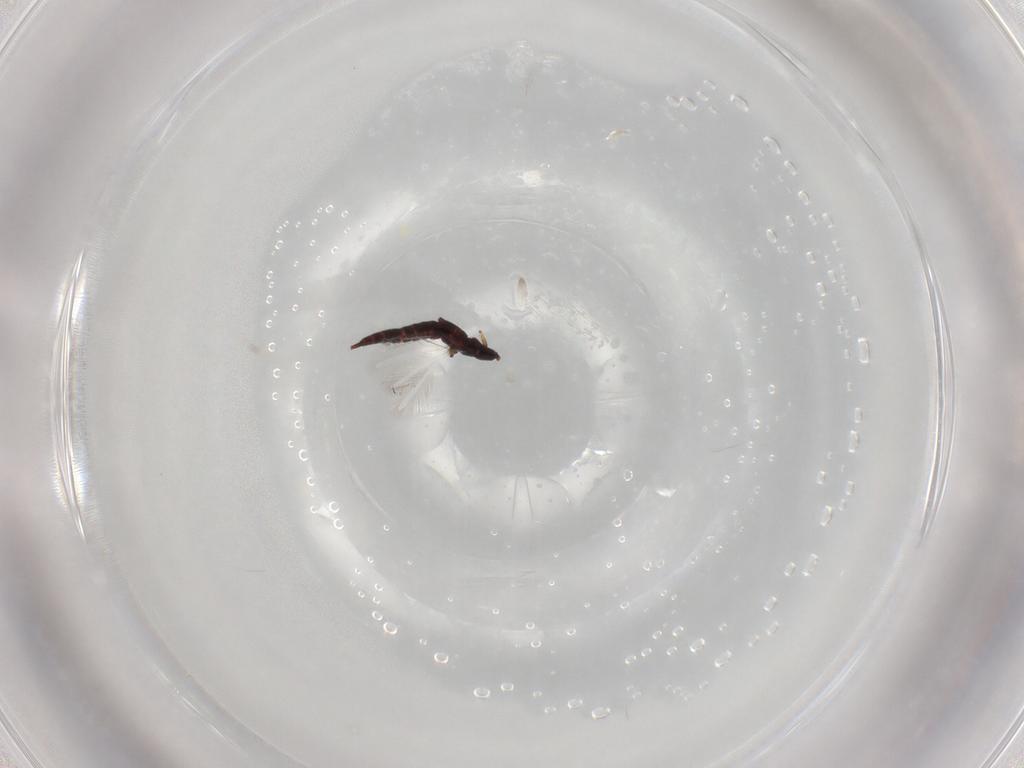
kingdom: Animalia
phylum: Arthropoda
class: Insecta
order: Thysanoptera
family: Phlaeothripidae
